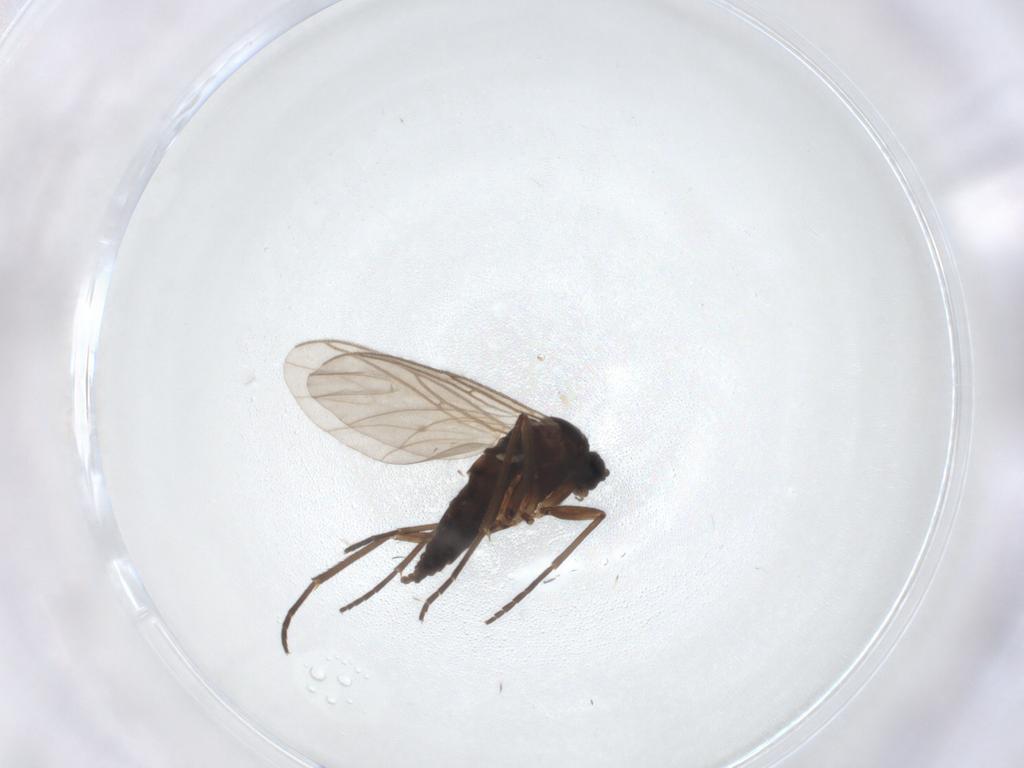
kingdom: Animalia
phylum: Arthropoda
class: Insecta
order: Diptera
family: Sciaridae
